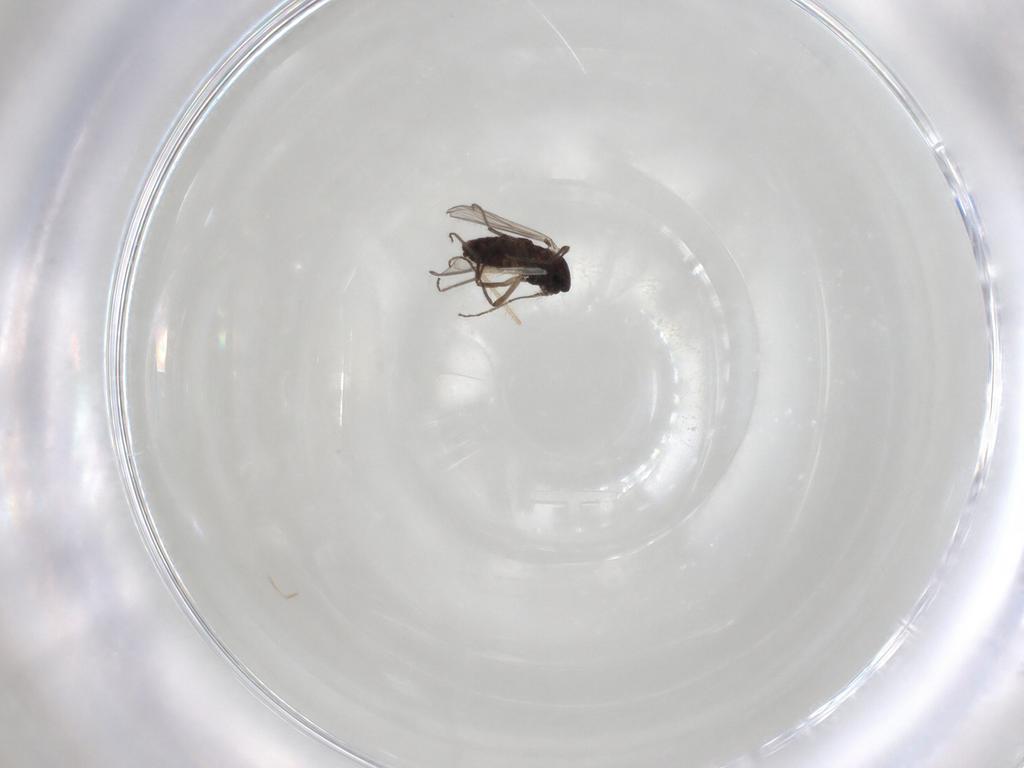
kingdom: Animalia
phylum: Arthropoda
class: Insecta
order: Diptera
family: Chironomidae
